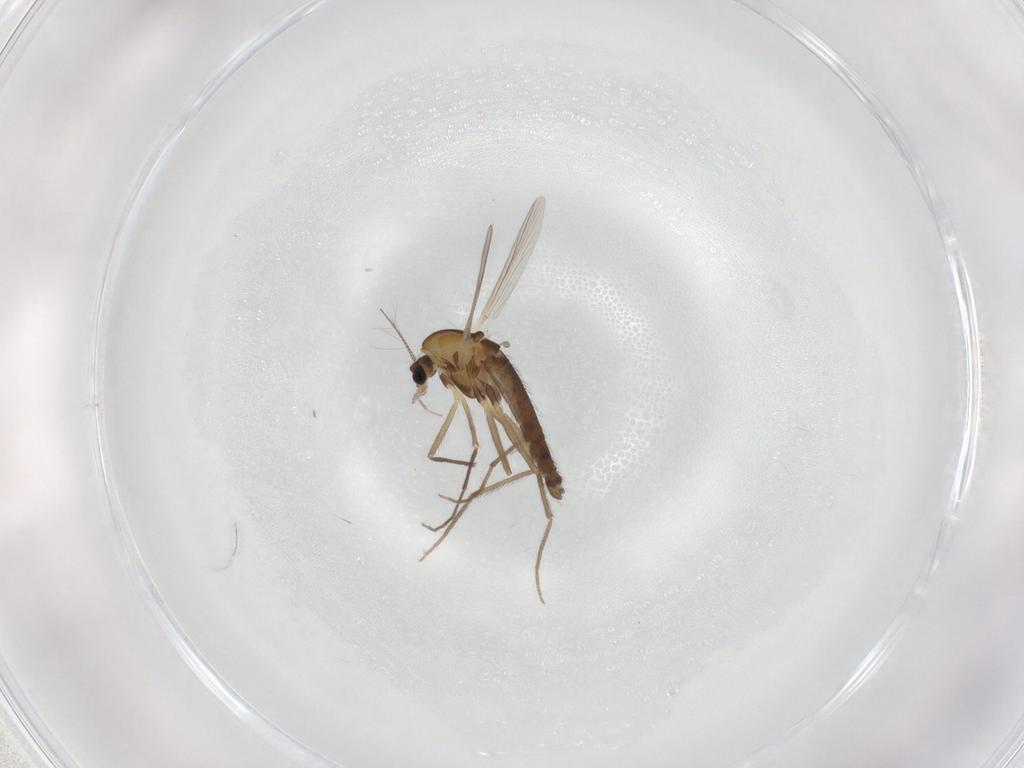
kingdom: Animalia
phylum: Arthropoda
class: Insecta
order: Diptera
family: Chironomidae
